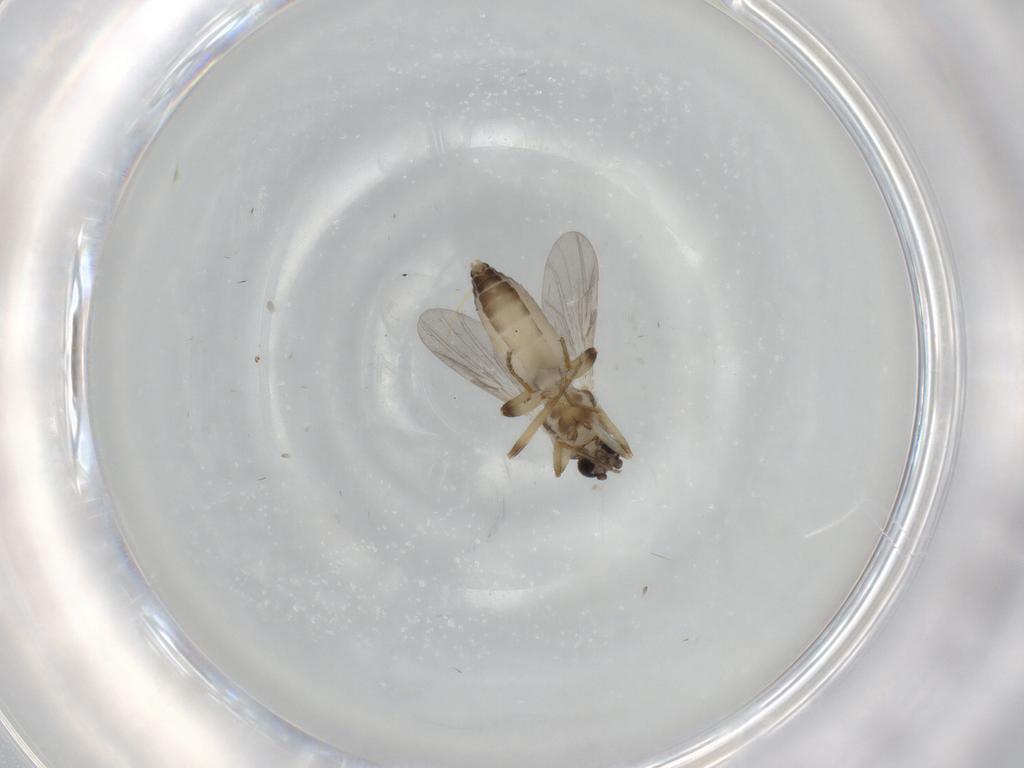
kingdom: Animalia
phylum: Arthropoda
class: Insecta
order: Diptera
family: Ceratopogonidae
